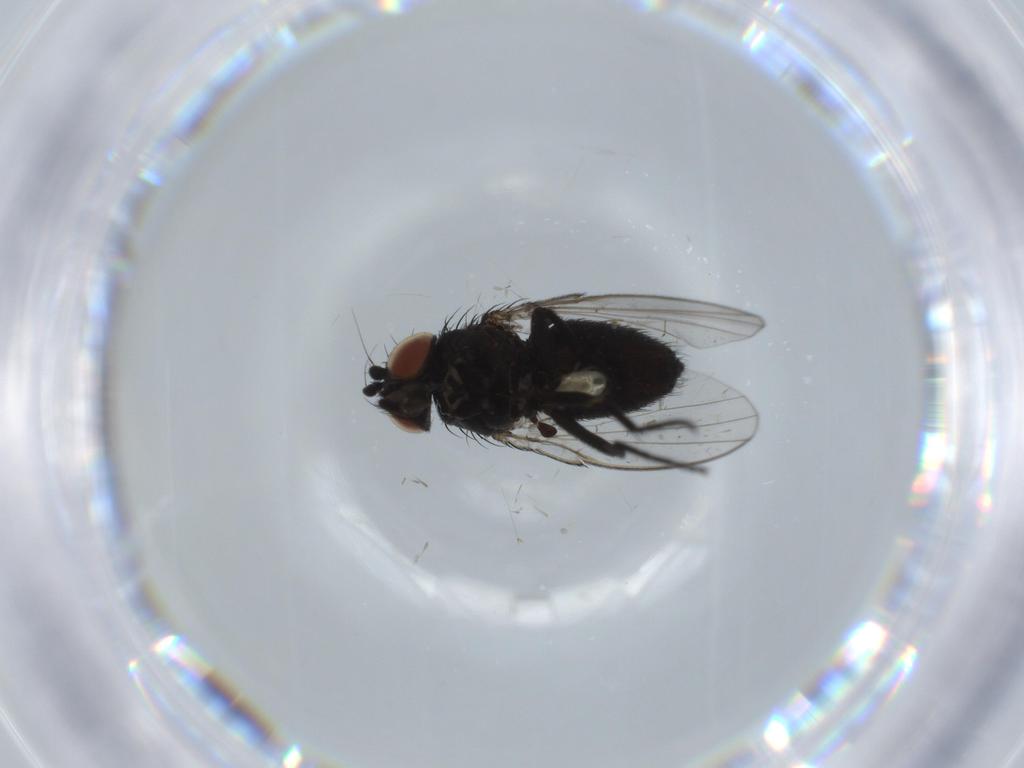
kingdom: Animalia
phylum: Arthropoda
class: Insecta
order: Diptera
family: Milichiidae
